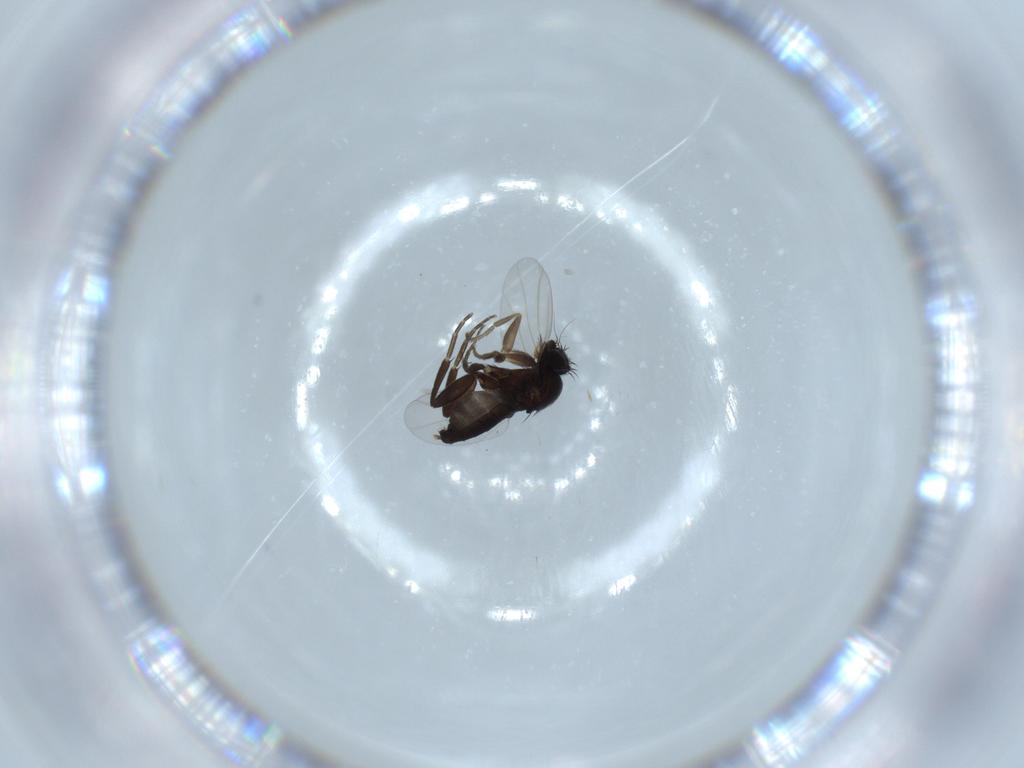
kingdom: Animalia
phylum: Arthropoda
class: Insecta
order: Diptera
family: Phoridae
